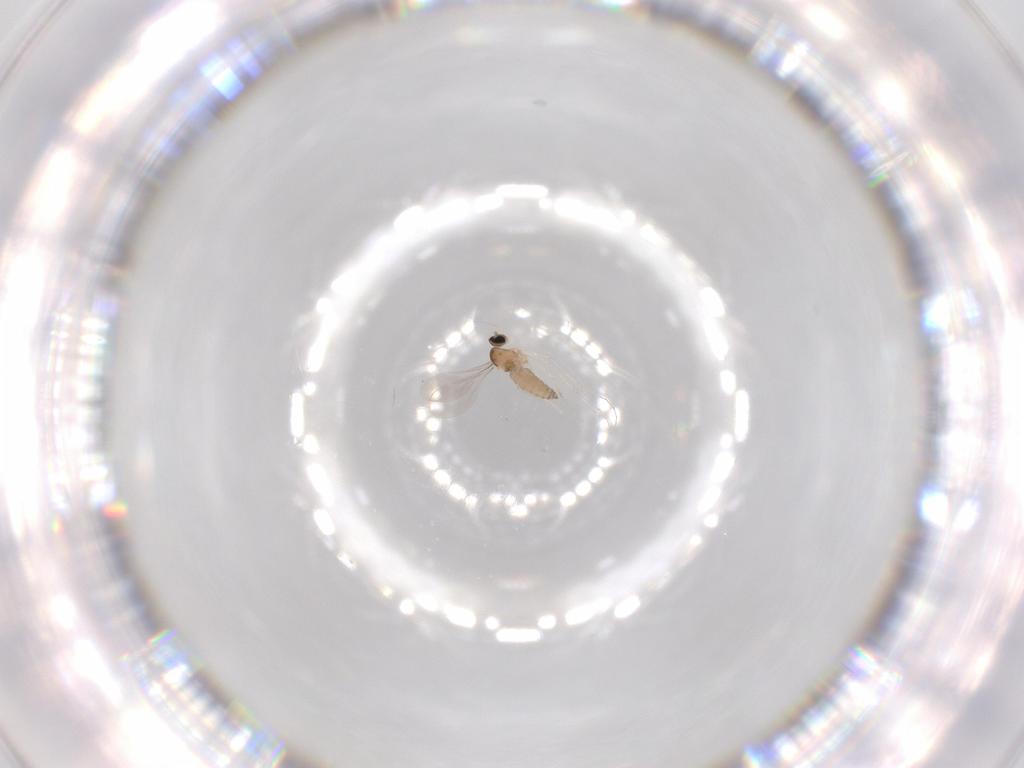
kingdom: Animalia
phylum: Arthropoda
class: Insecta
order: Diptera
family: Cecidomyiidae
